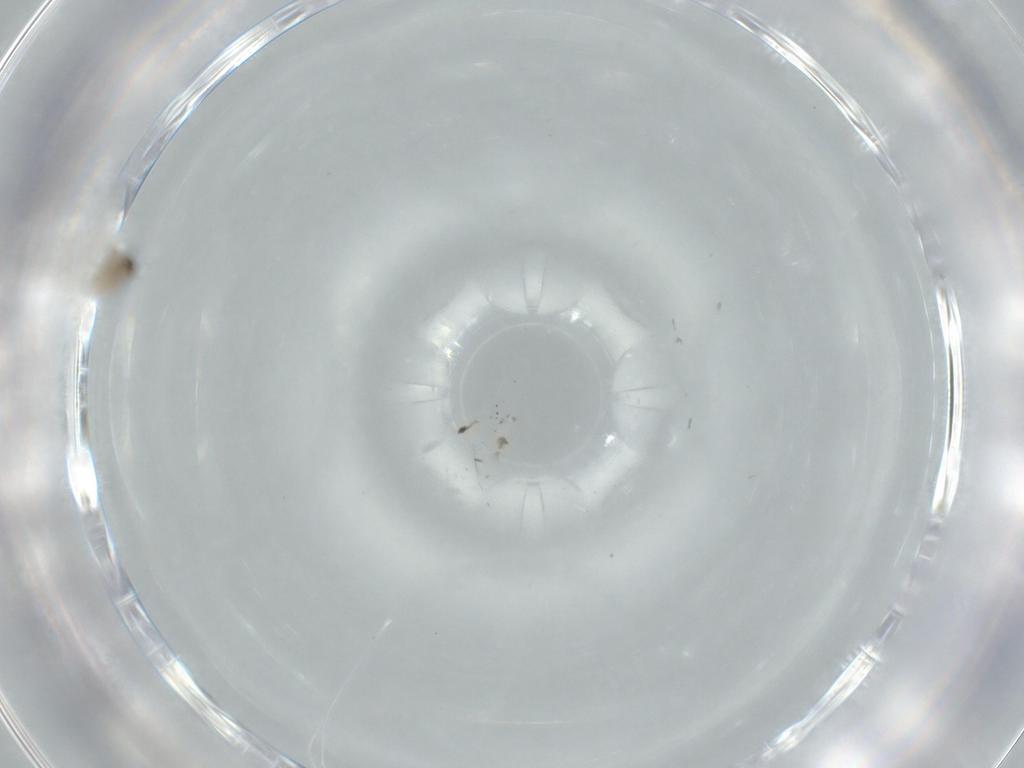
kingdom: Animalia
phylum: Arthropoda
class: Insecta
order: Diptera
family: Cecidomyiidae
